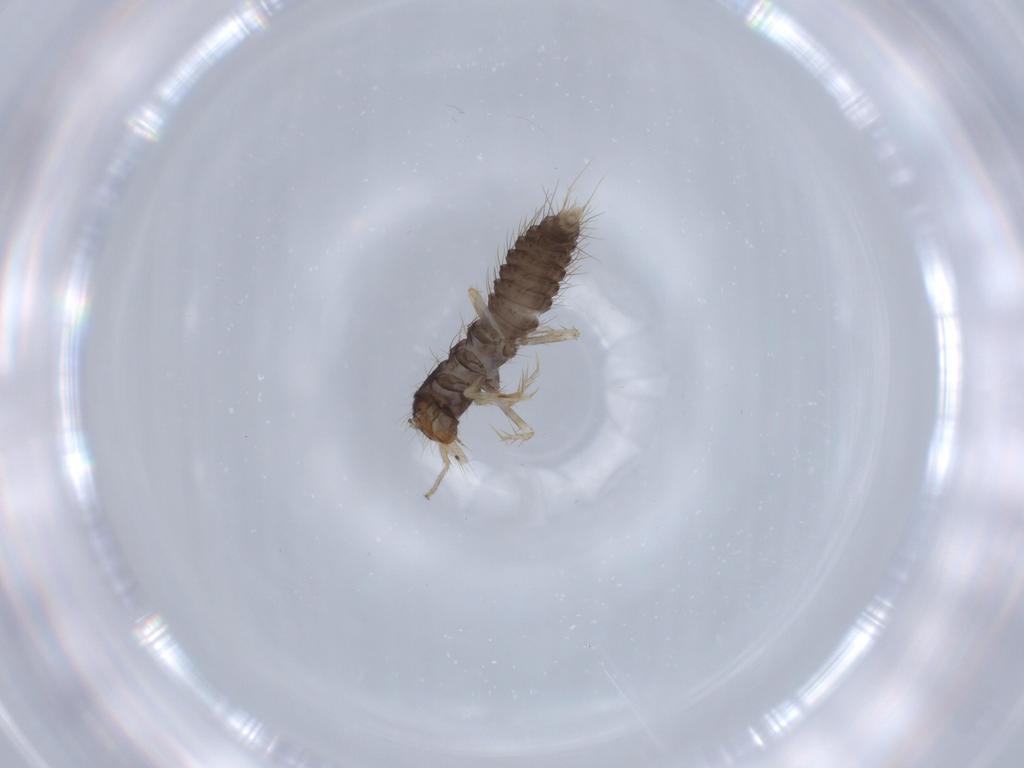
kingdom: Animalia
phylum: Arthropoda
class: Insecta
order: Coleoptera
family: Staphylinidae
